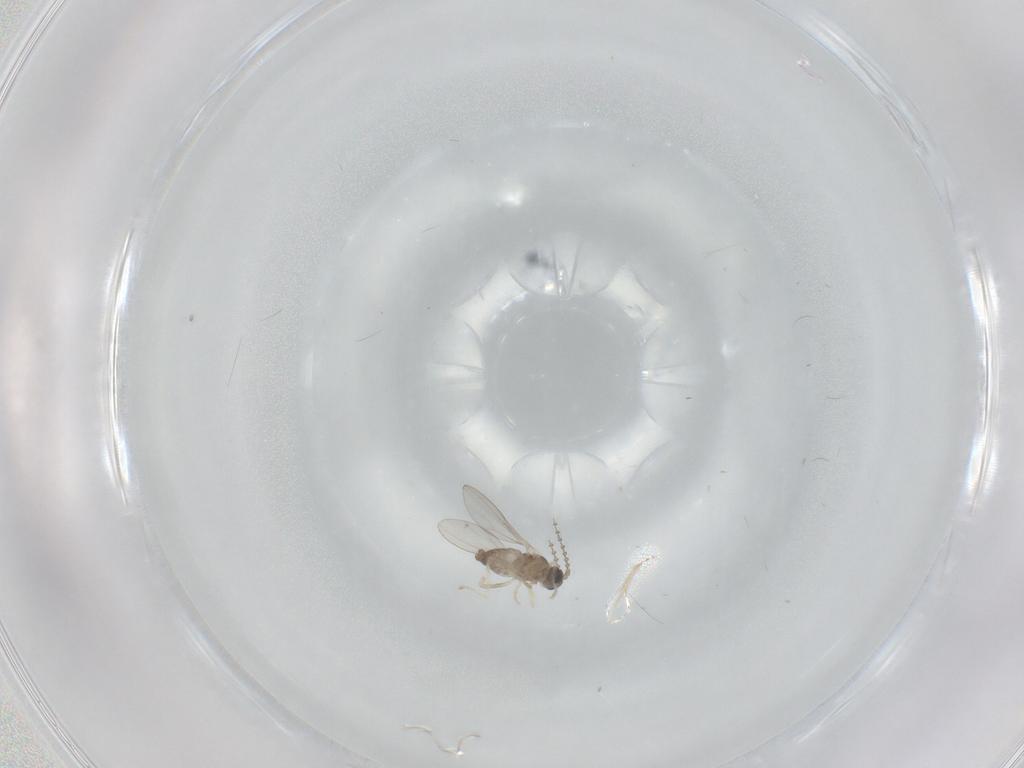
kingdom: Animalia
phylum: Arthropoda
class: Insecta
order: Diptera
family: Cecidomyiidae
